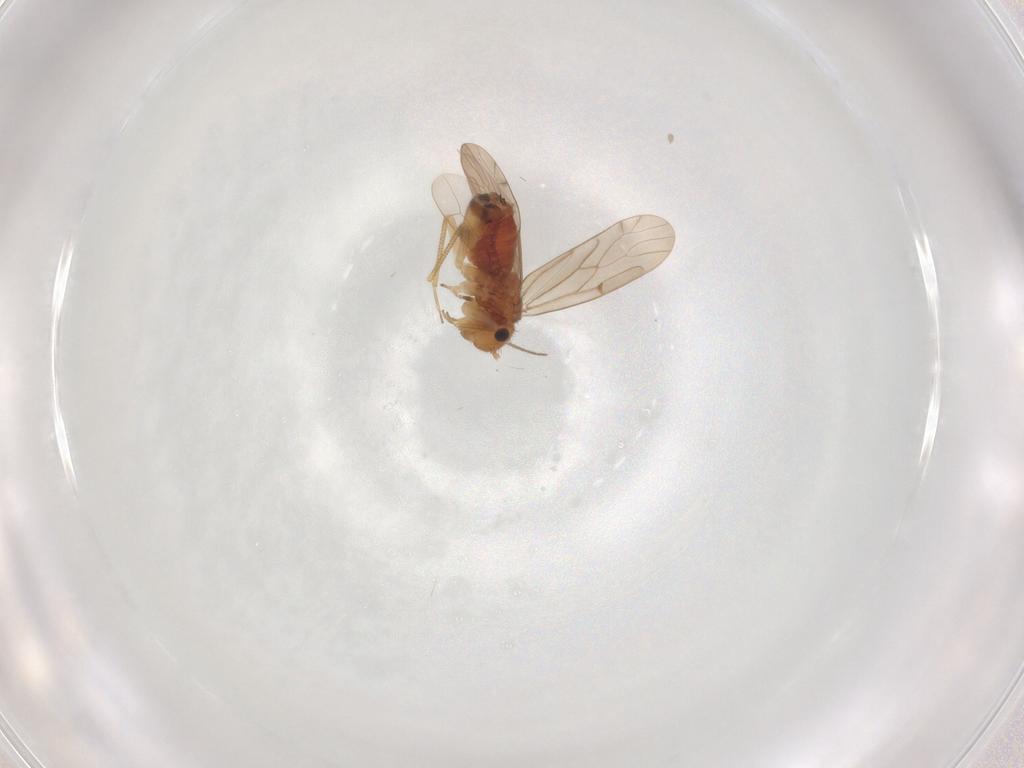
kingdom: Animalia
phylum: Arthropoda
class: Insecta
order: Psocodea
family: Ectopsocidae
